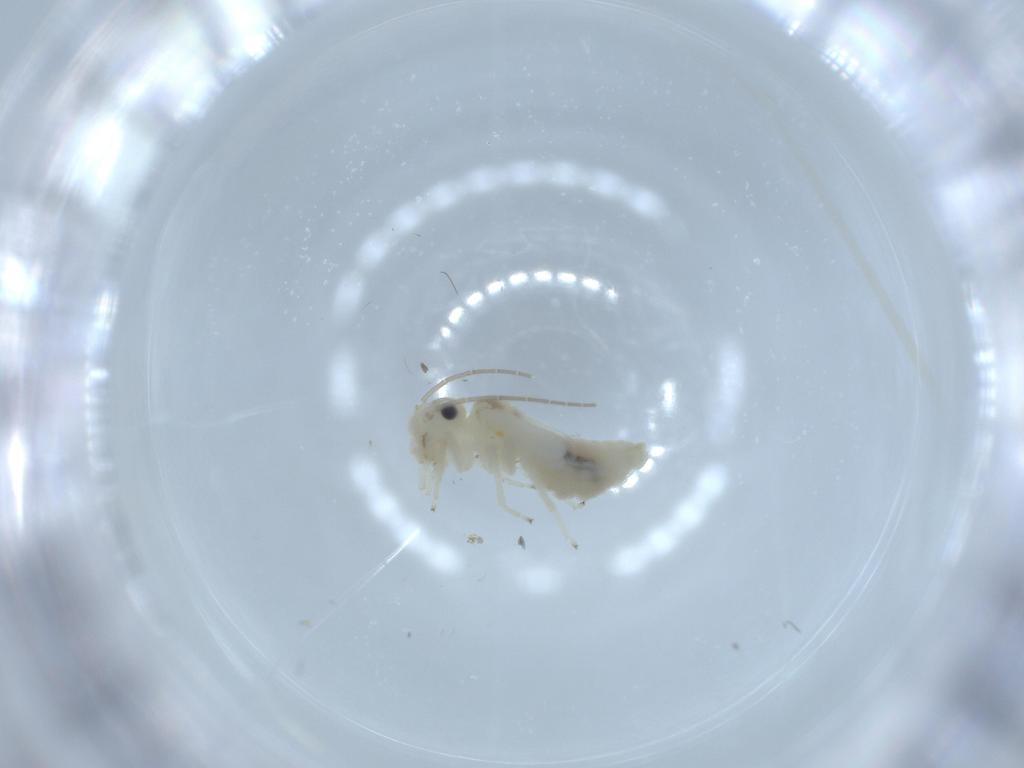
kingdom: Animalia
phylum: Arthropoda
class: Insecta
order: Psocodea
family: Caeciliusidae
